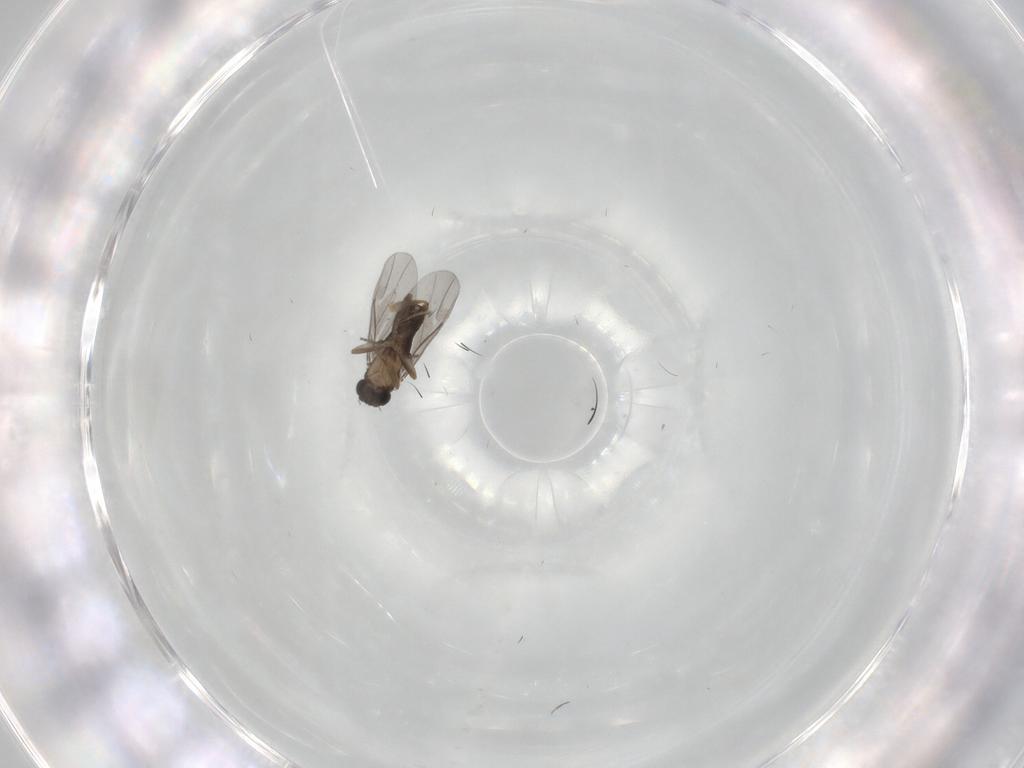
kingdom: Animalia
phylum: Arthropoda
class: Insecta
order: Diptera
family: Chironomidae
